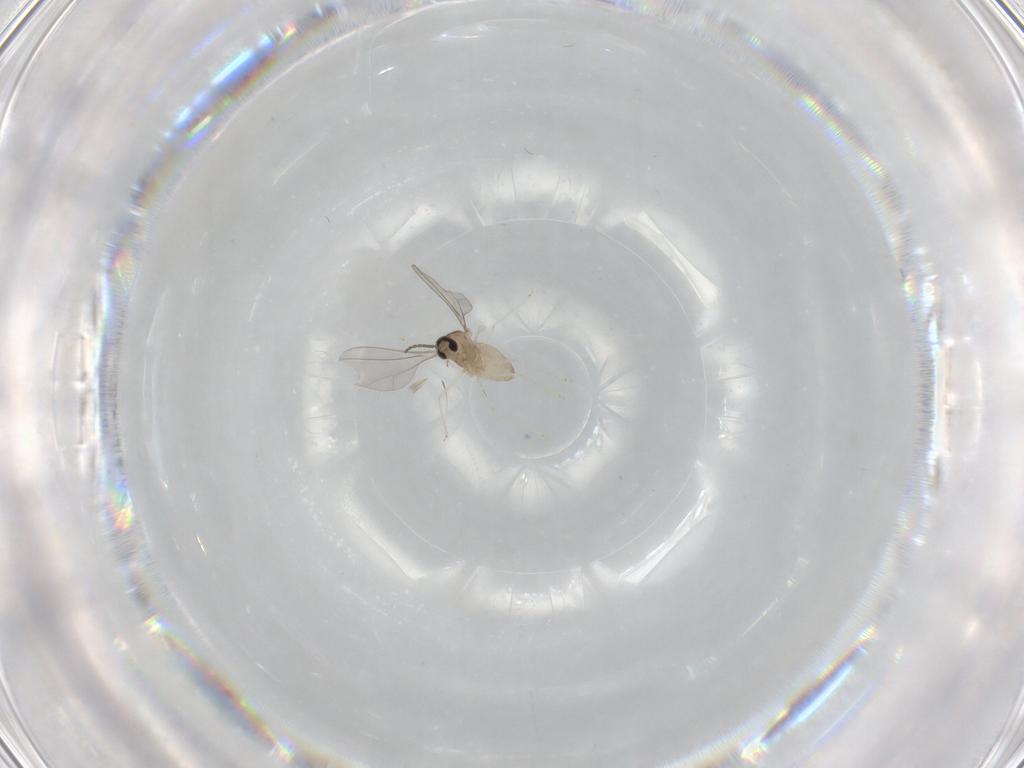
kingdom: Animalia
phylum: Arthropoda
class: Insecta
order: Diptera
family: Cecidomyiidae
